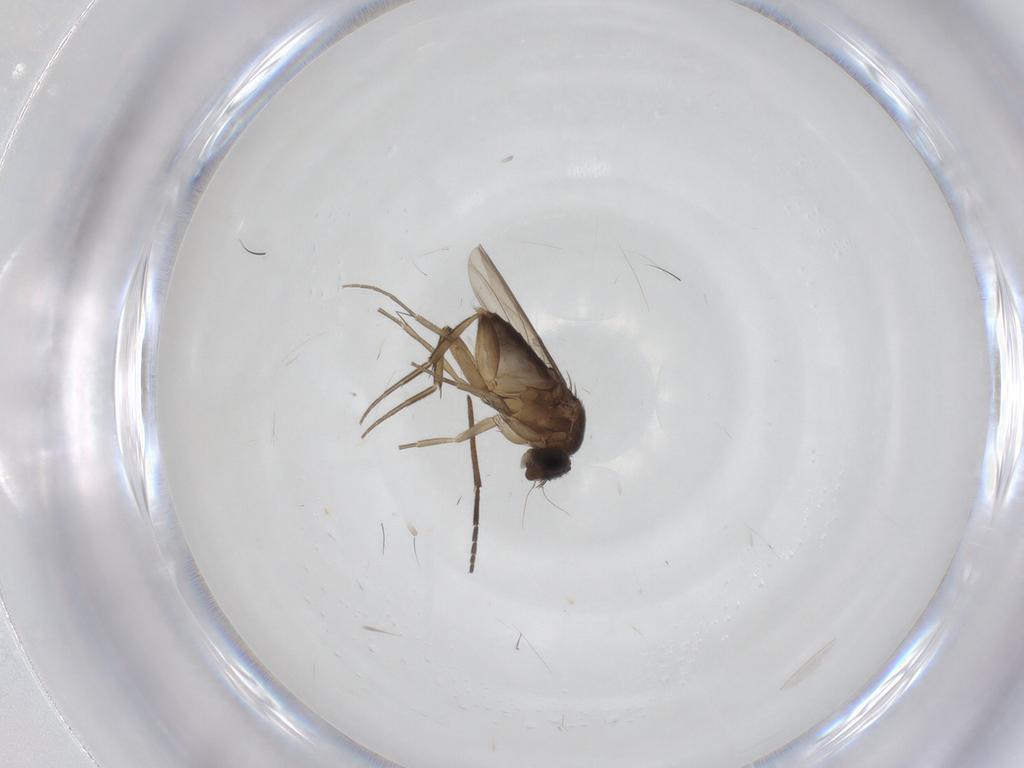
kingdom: Animalia
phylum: Arthropoda
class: Insecta
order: Diptera
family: Phoridae
